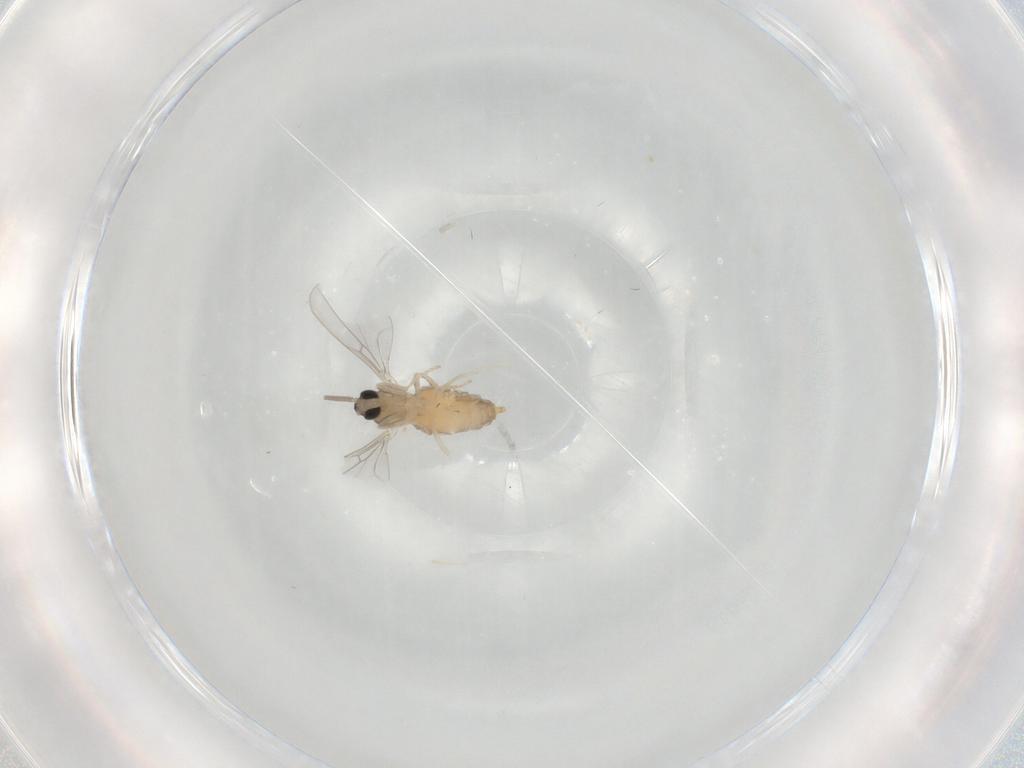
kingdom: Animalia
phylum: Arthropoda
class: Insecta
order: Diptera
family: Cecidomyiidae
